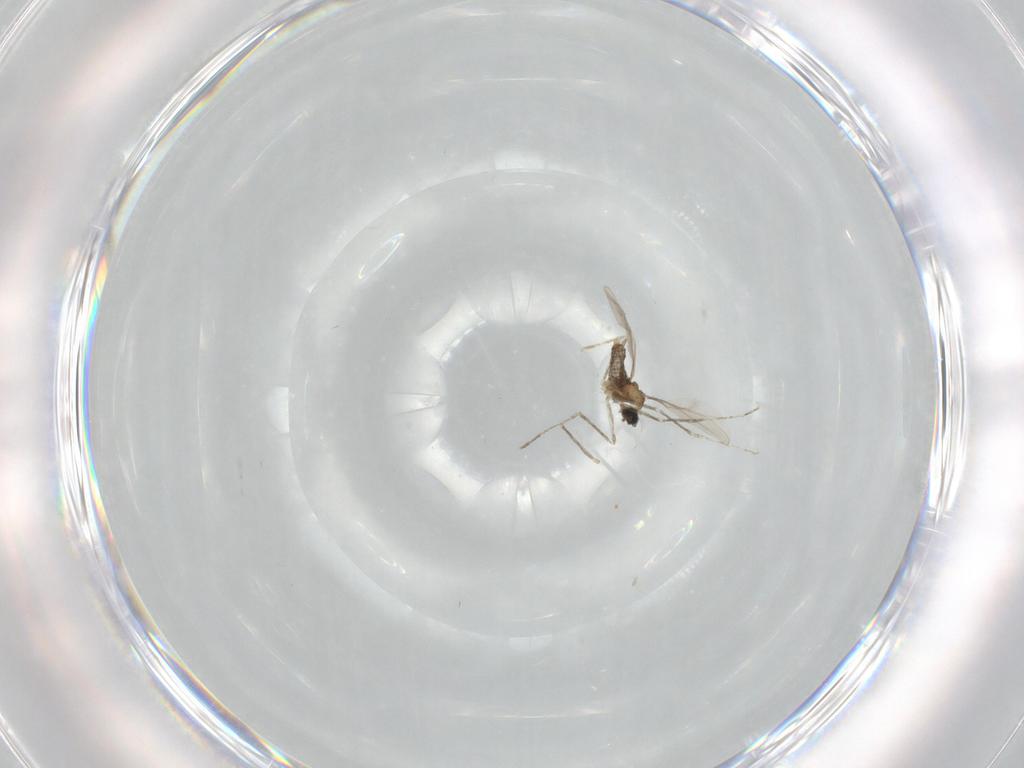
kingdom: Animalia
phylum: Arthropoda
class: Insecta
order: Diptera
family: Cecidomyiidae
